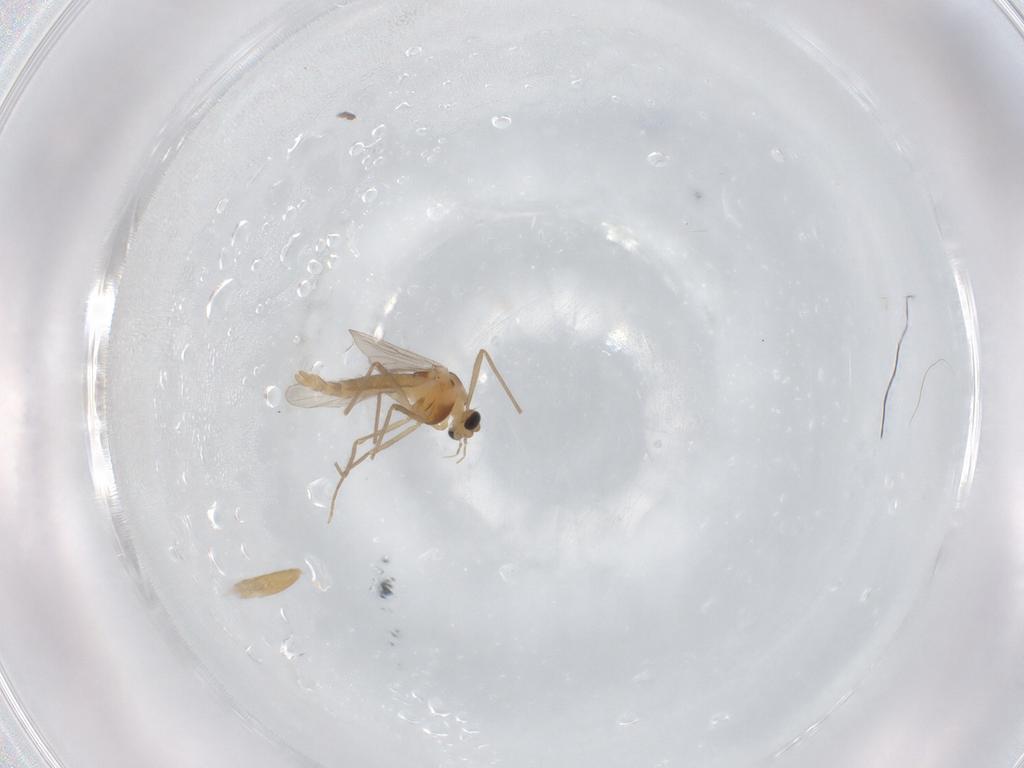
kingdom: Animalia
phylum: Arthropoda
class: Insecta
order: Diptera
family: Chironomidae
